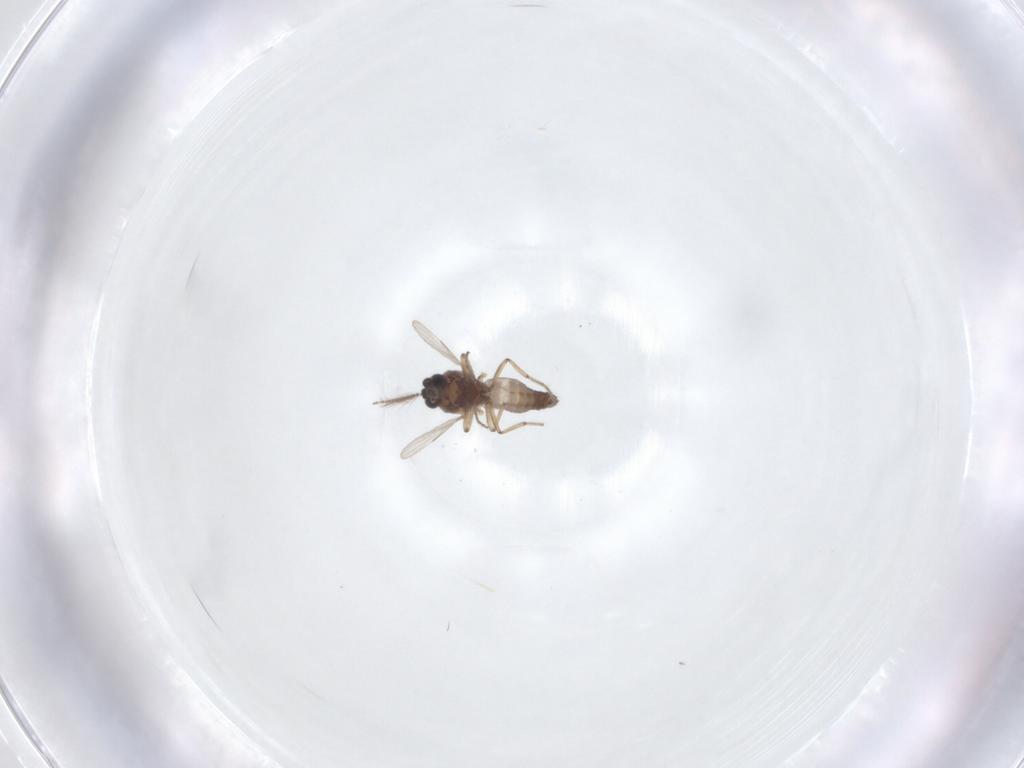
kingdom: Animalia
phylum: Arthropoda
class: Insecta
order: Diptera
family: Ceratopogonidae
